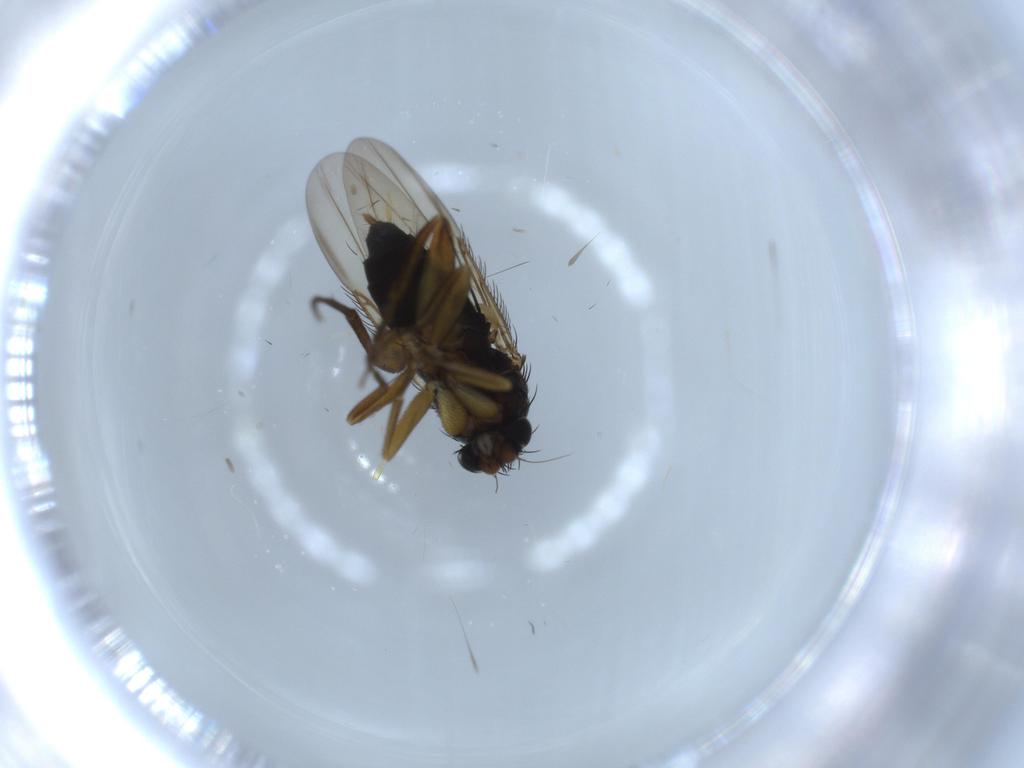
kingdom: Animalia
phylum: Arthropoda
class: Insecta
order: Diptera
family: Phoridae
